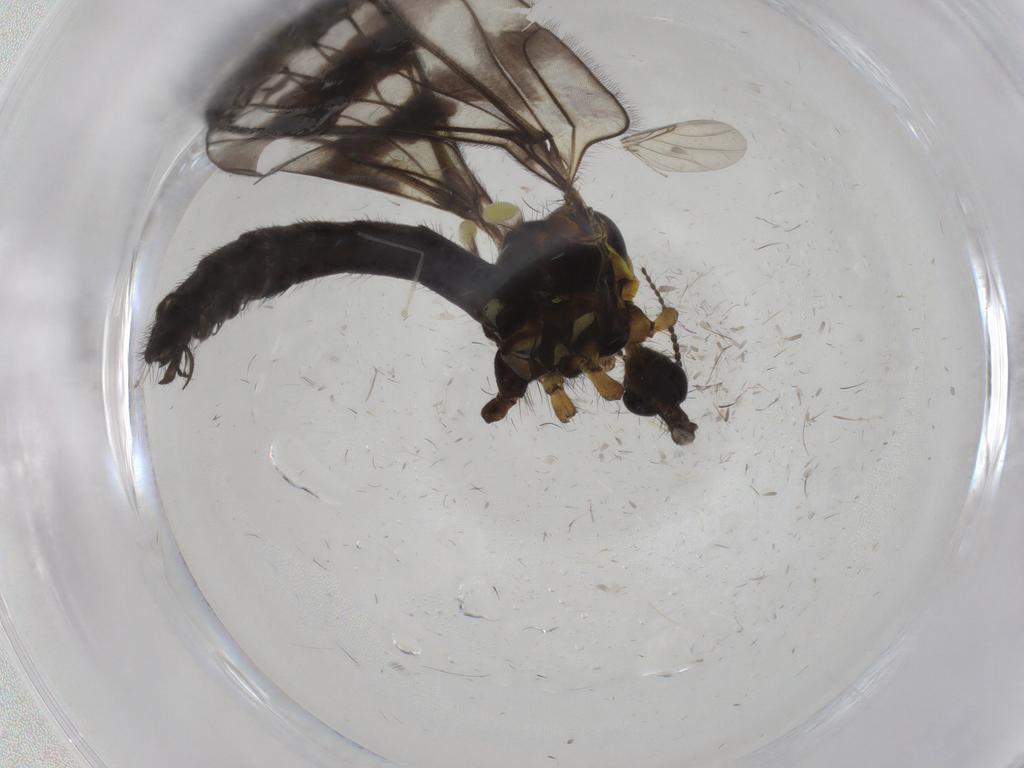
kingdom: Animalia
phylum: Arthropoda
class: Insecta
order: Diptera
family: Limoniidae
